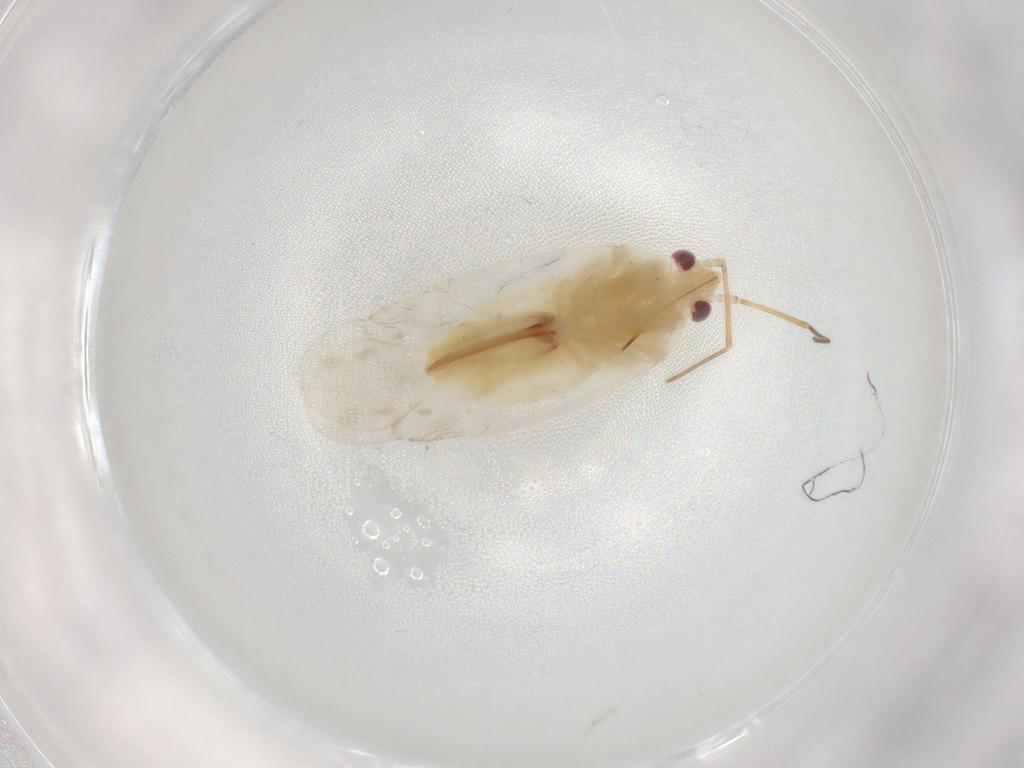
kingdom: Animalia
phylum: Arthropoda
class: Insecta
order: Hemiptera
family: Miridae
